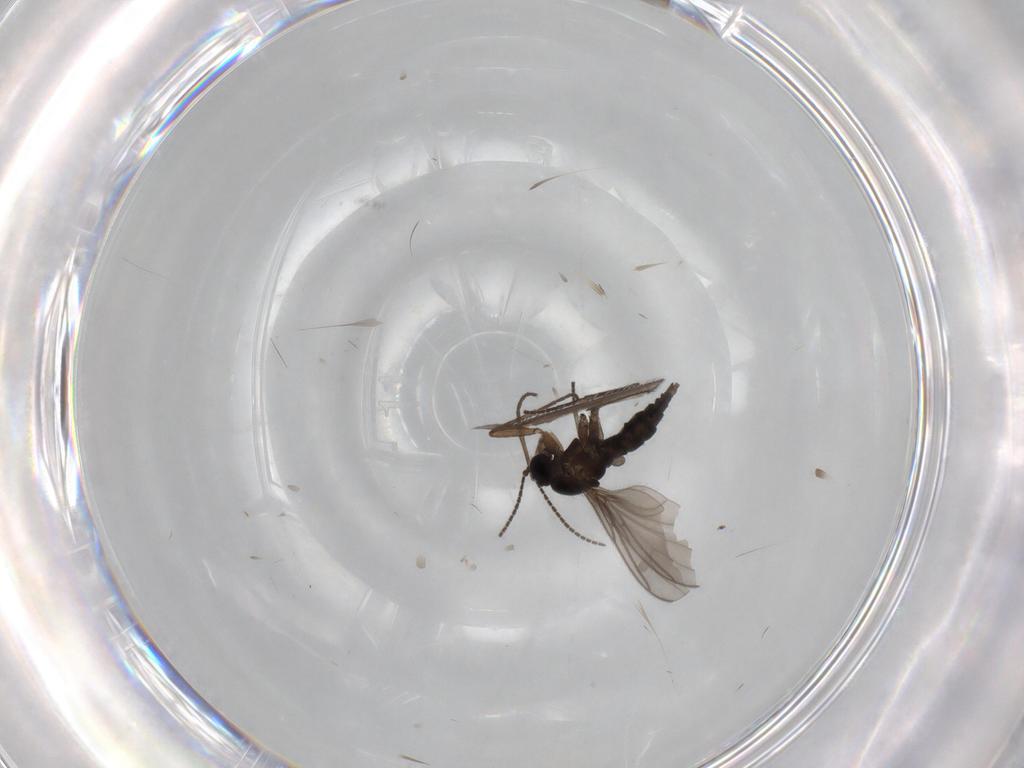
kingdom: Animalia
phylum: Arthropoda
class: Insecta
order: Diptera
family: Sciaridae
